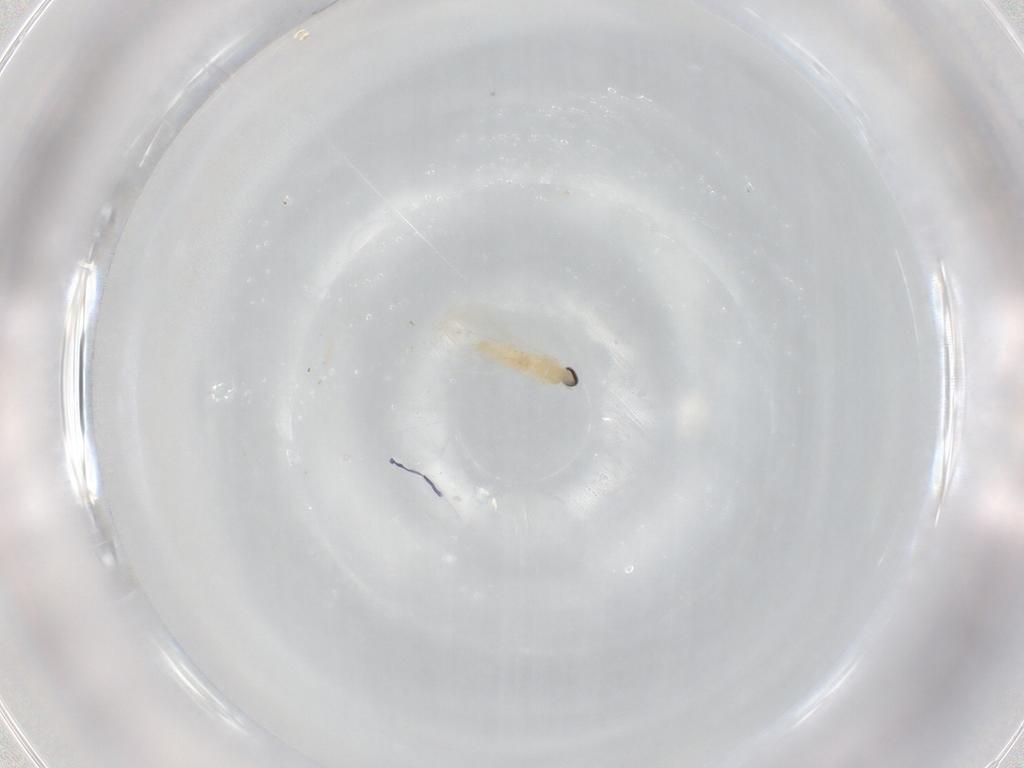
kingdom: Animalia
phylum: Arthropoda
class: Insecta
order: Diptera
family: Cecidomyiidae
